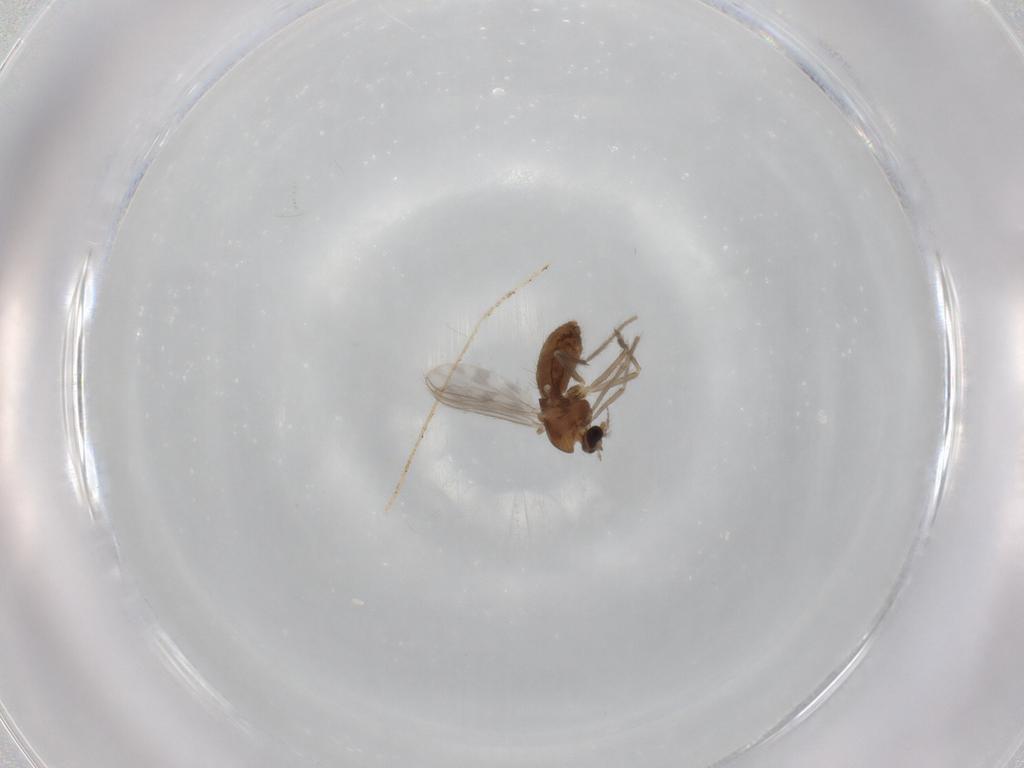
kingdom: Animalia
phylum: Arthropoda
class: Insecta
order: Diptera
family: Chironomidae
